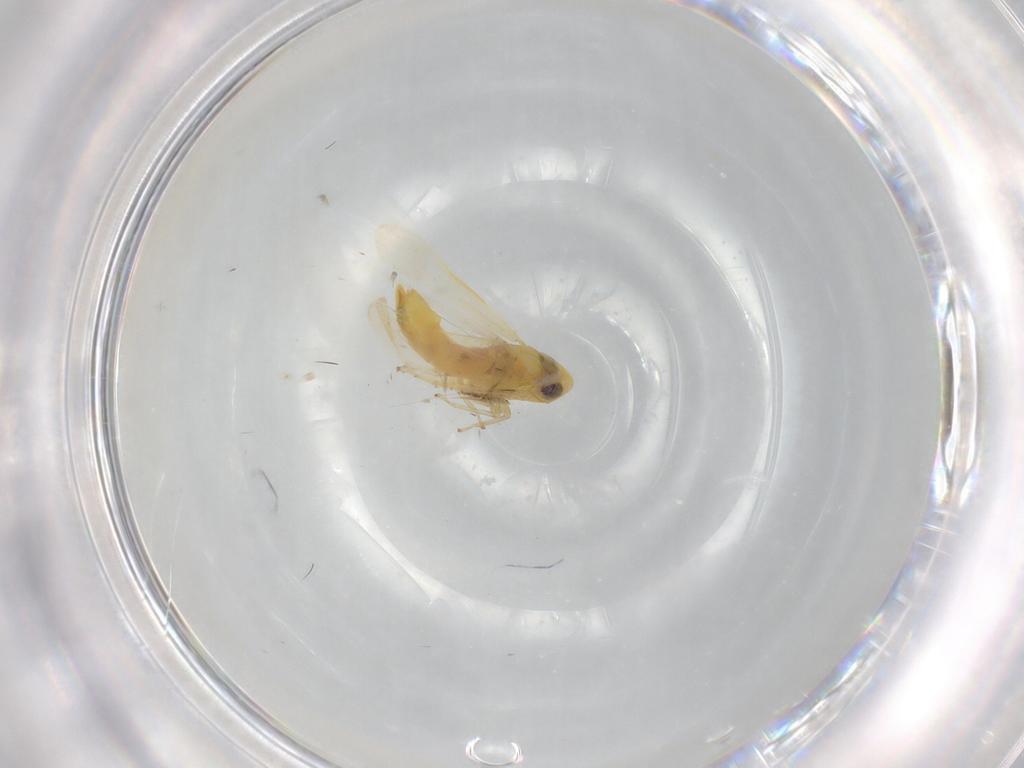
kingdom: Animalia
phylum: Arthropoda
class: Insecta
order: Hemiptera
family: Cicadellidae
